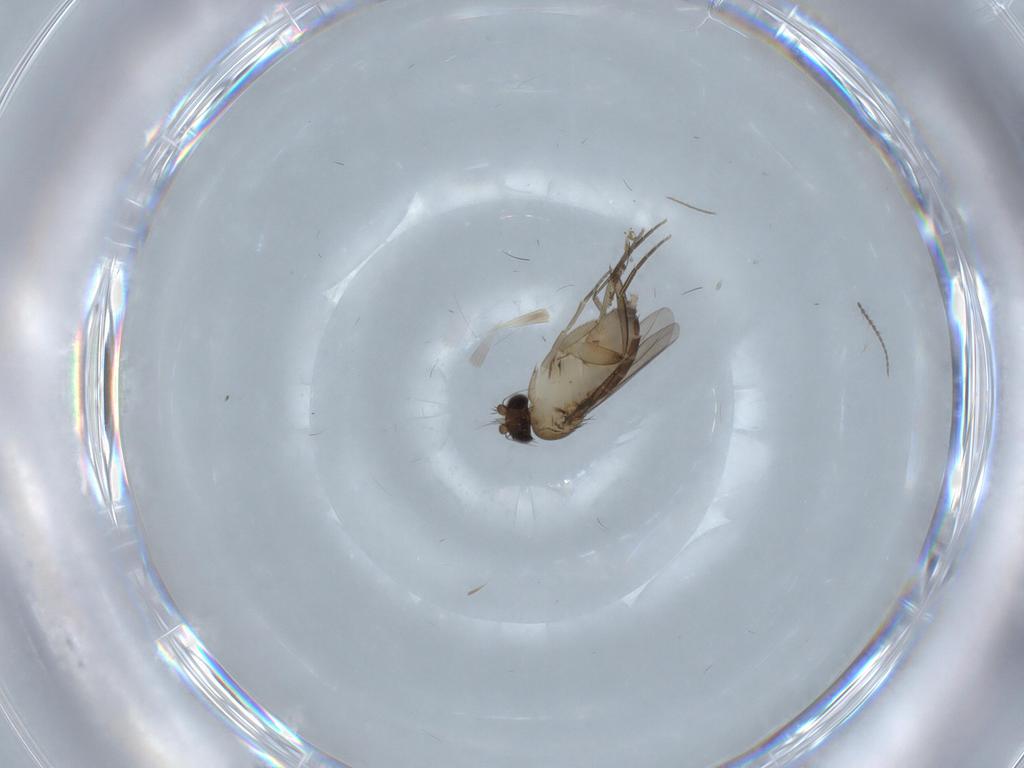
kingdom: Animalia
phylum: Arthropoda
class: Insecta
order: Diptera
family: Phoridae
